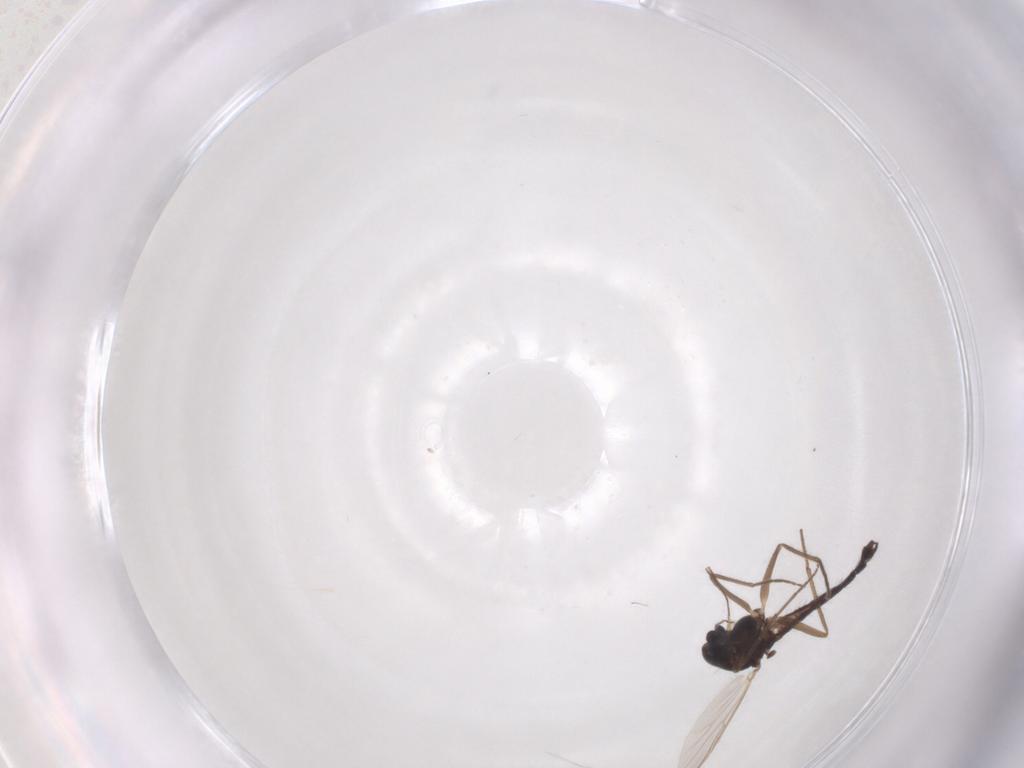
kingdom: Animalia
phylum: Arthropoda
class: Insecta
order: Diptera
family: Chironomidae
